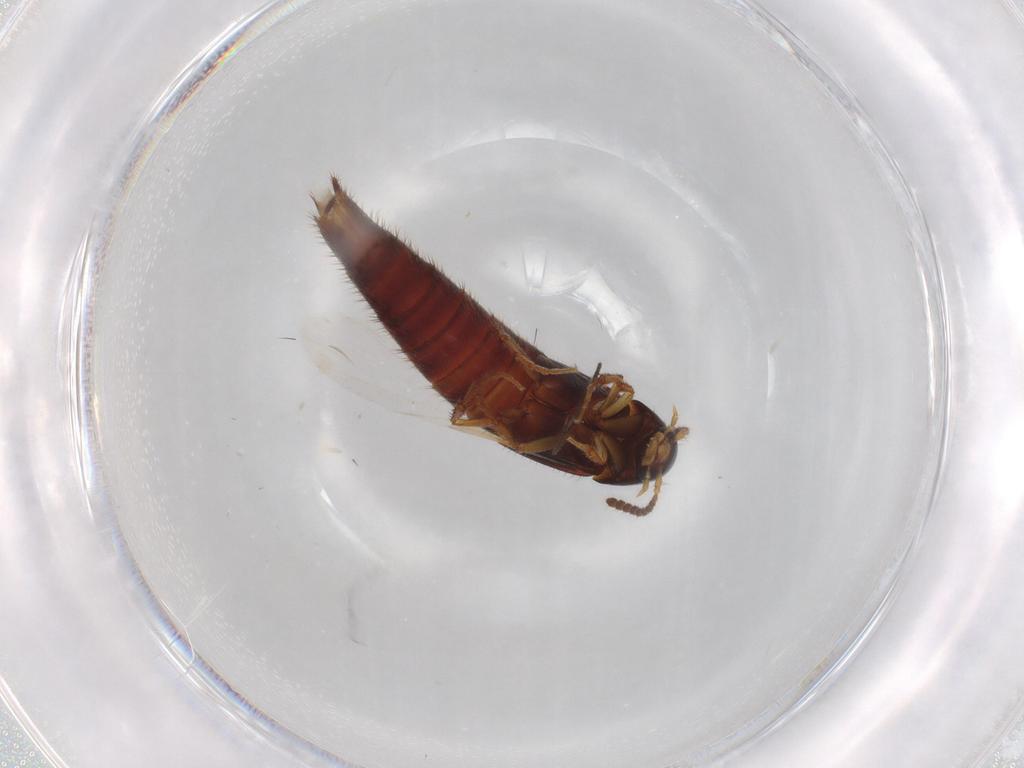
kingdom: Animalia
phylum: Arthropoda
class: Insecta
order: Coleoptera
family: Staphylinidae
